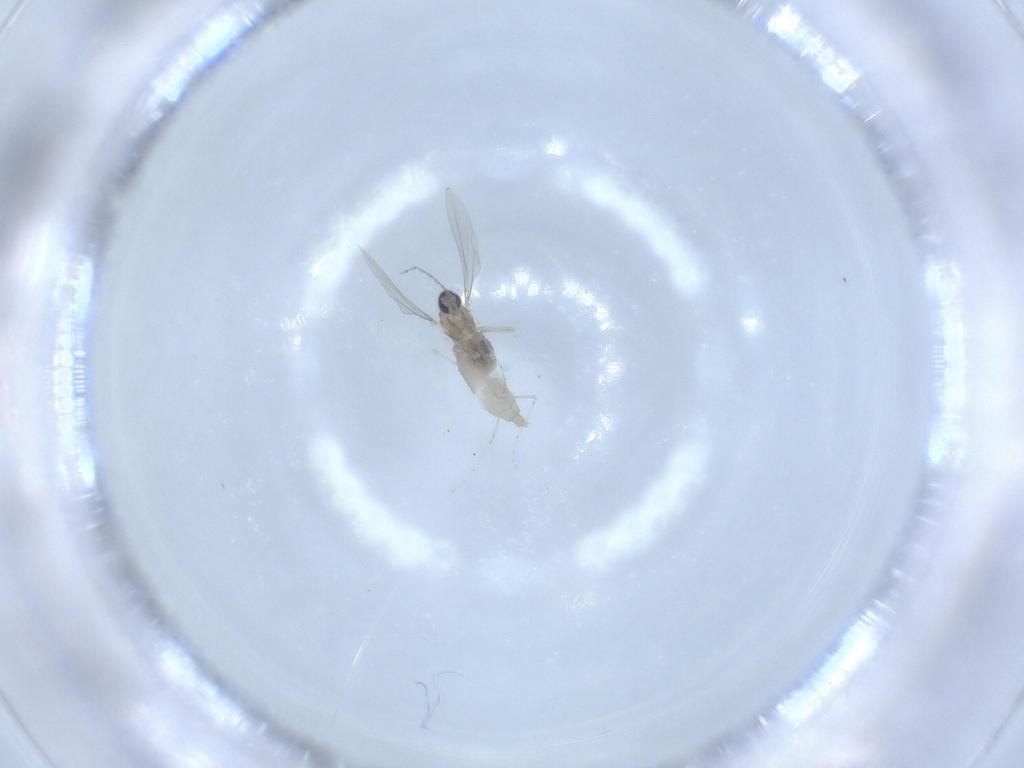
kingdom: Animalia
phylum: Arthropoda
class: Insecta
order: Diptera
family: Cecidomyiidae
